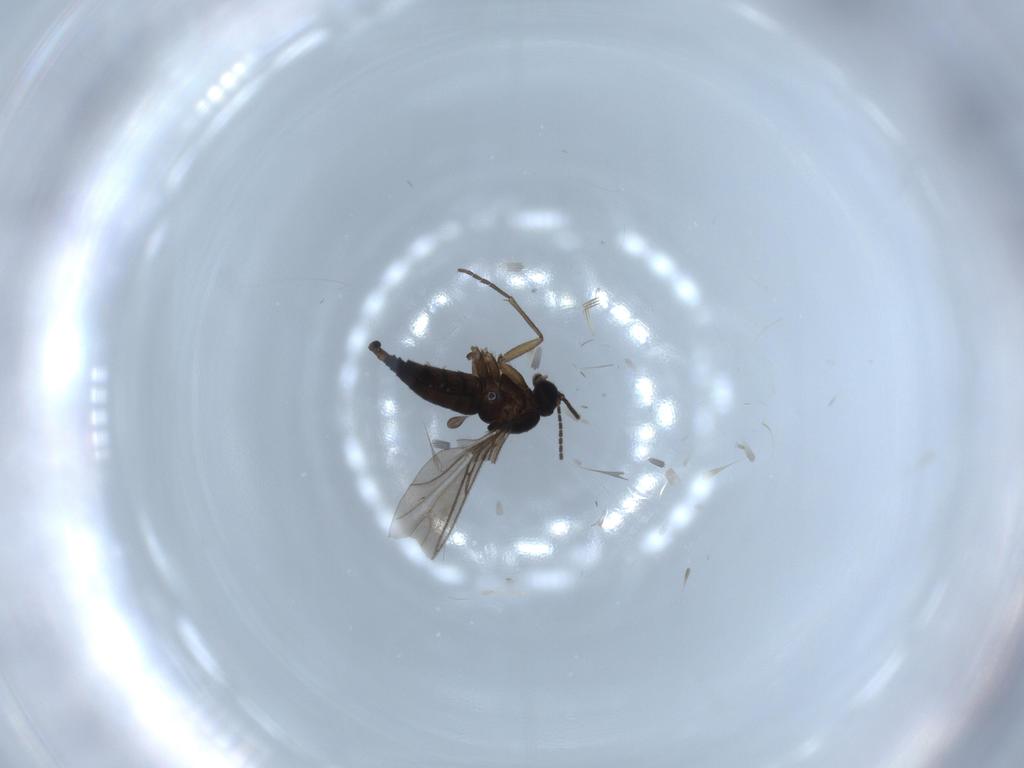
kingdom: Animalia
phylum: Arthropoda
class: Insecta
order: Diptera
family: Sciaridae
